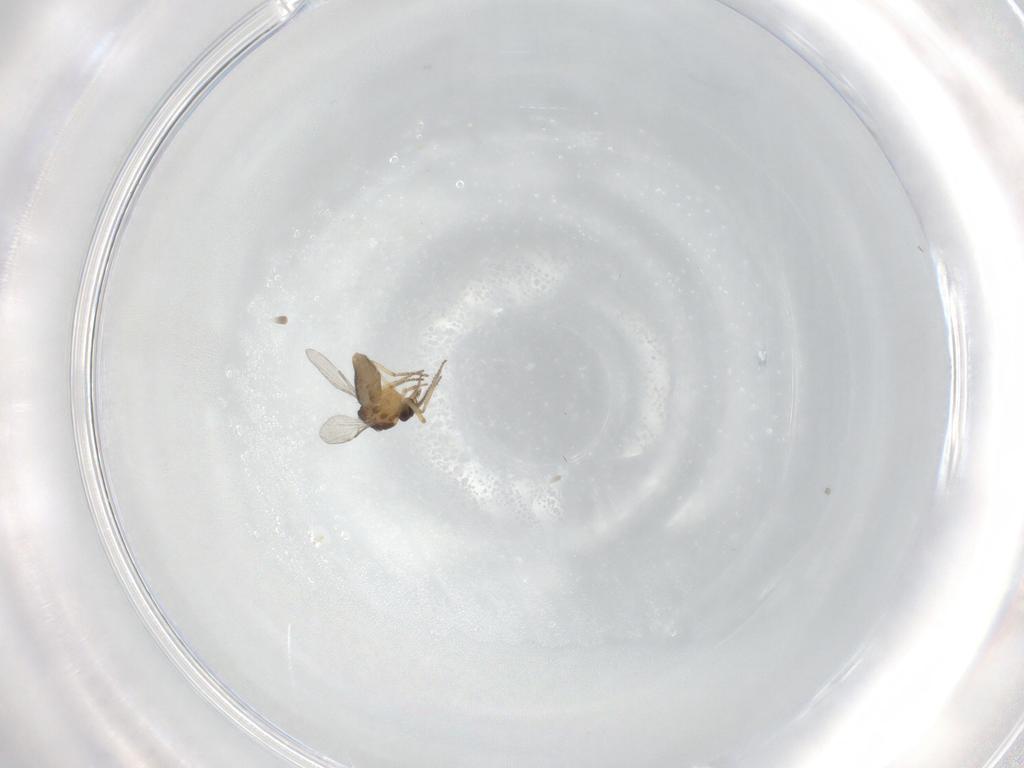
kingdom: Animalia
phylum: Arthropoda
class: Insecta
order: Diptera
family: Ceratopogonidae
